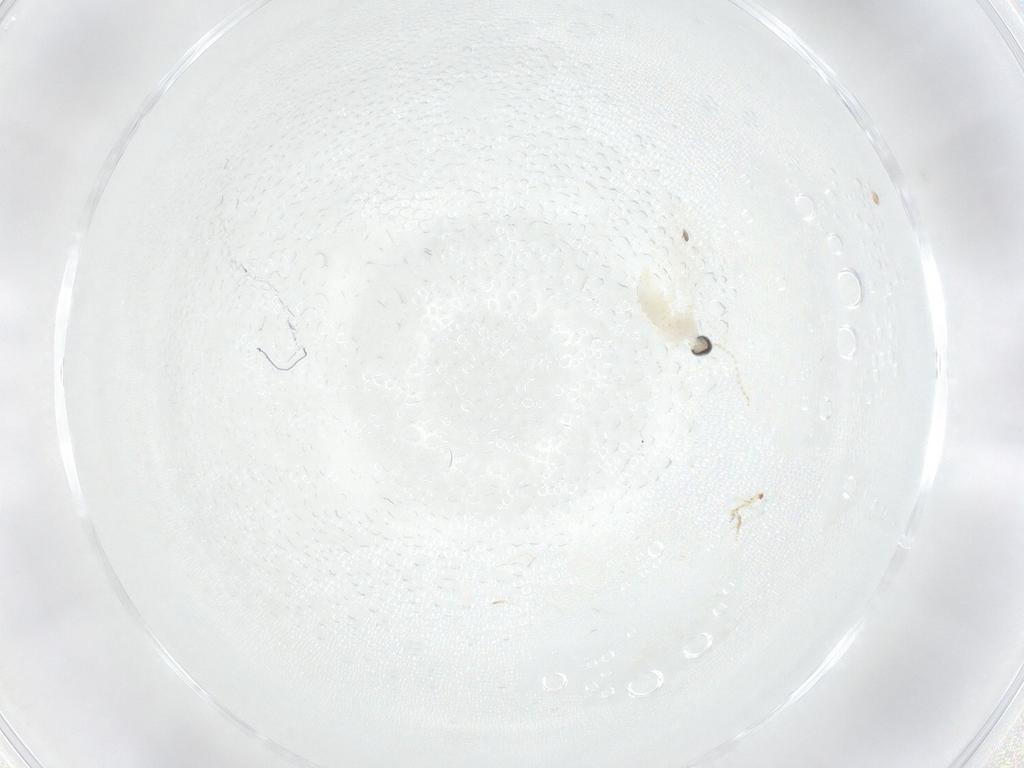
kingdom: Animalia
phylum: Arthropoda
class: Insecta
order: Diptera
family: Cecidomyiidae
